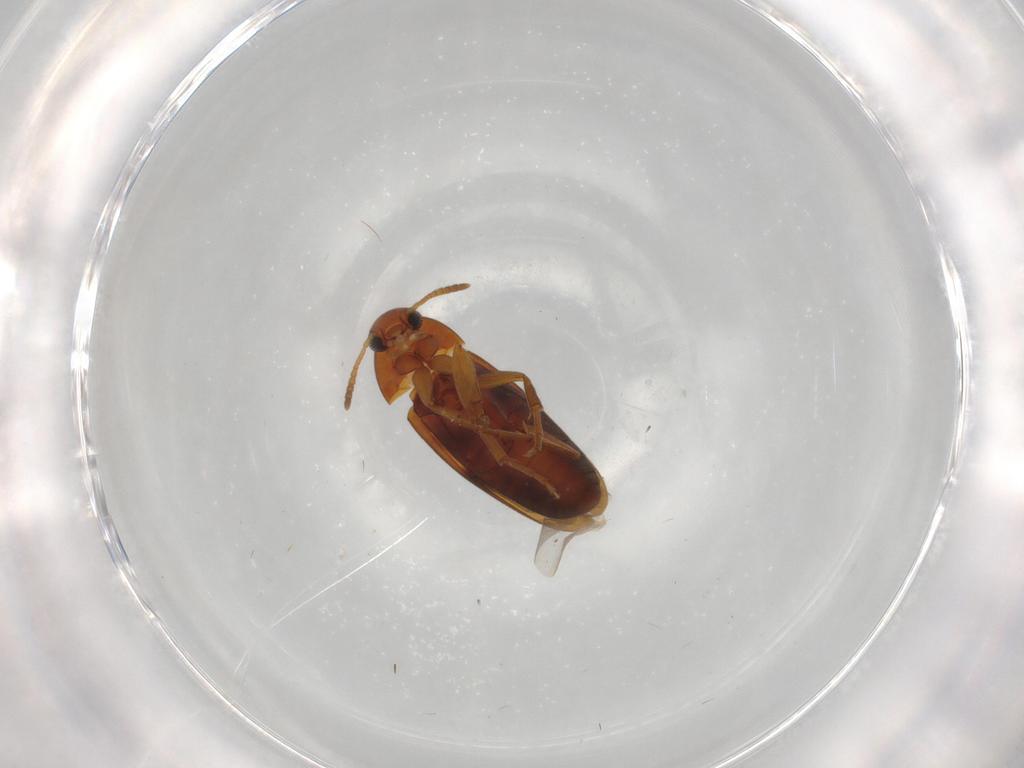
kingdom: Animalia
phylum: Arthropoda
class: Insecta
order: Coleoptera
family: Scraptiidae
